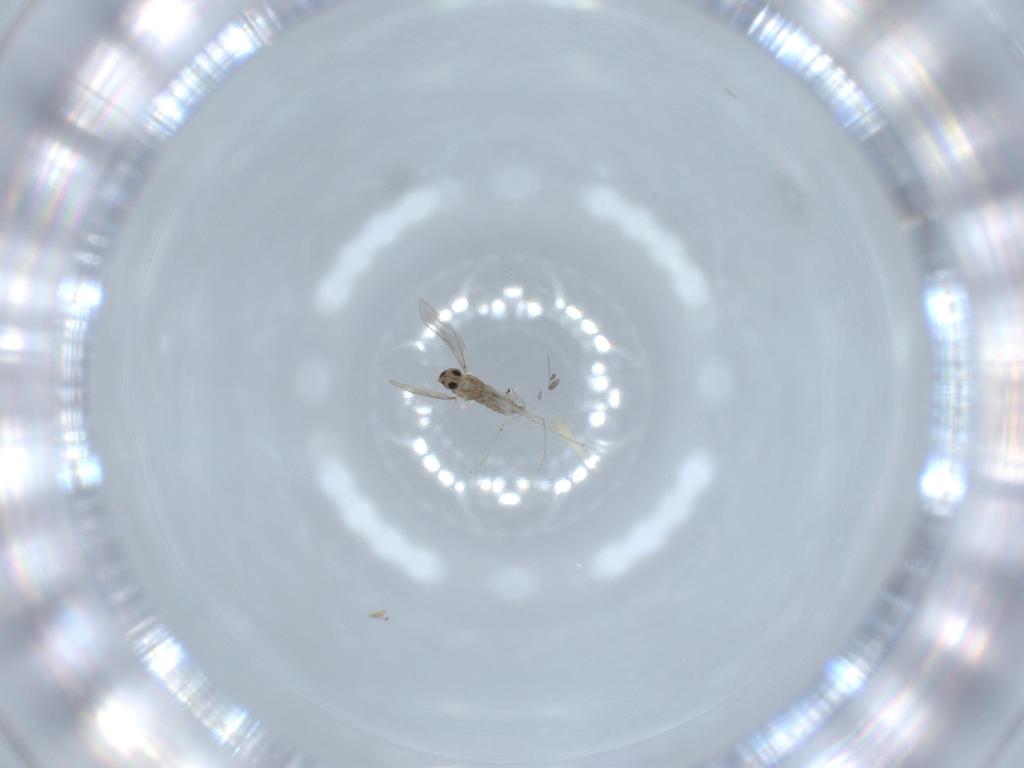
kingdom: Animalia
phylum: Arthropoda
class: Insecta
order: Diptera
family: Cecidomyiidae
